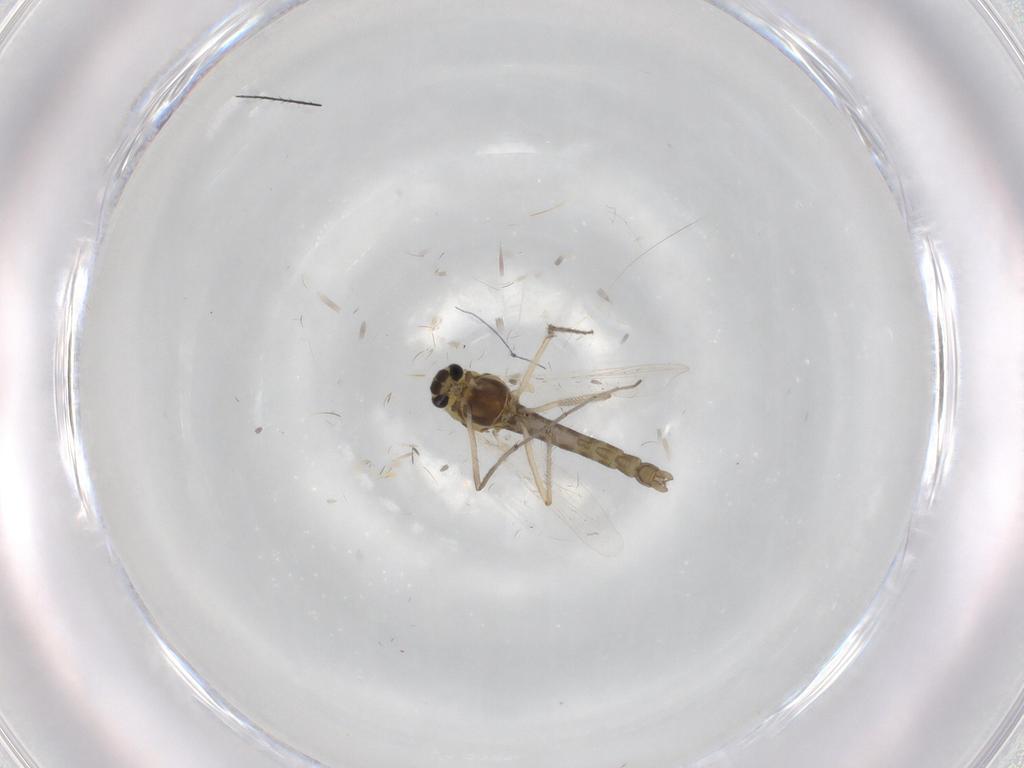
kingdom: Animalia
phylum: Arthropoda
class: Insecta
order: Diptera
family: Chironomidae
